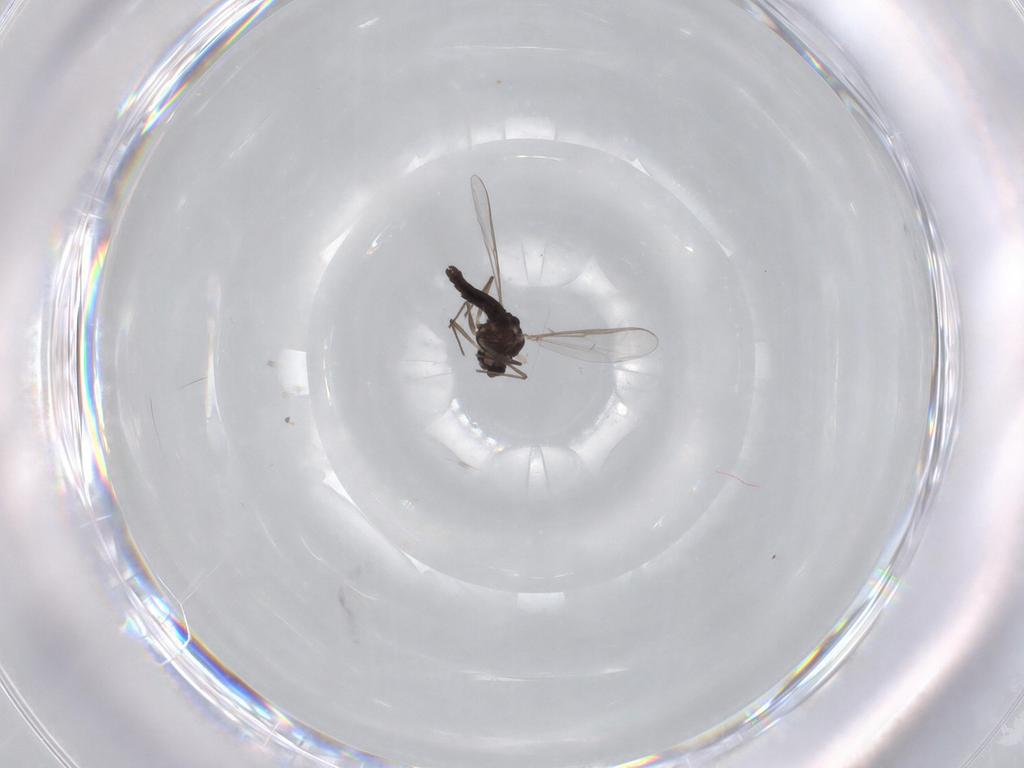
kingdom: Animalia
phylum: Arthropoda
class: Insecta
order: Diptera
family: Chironomidae
